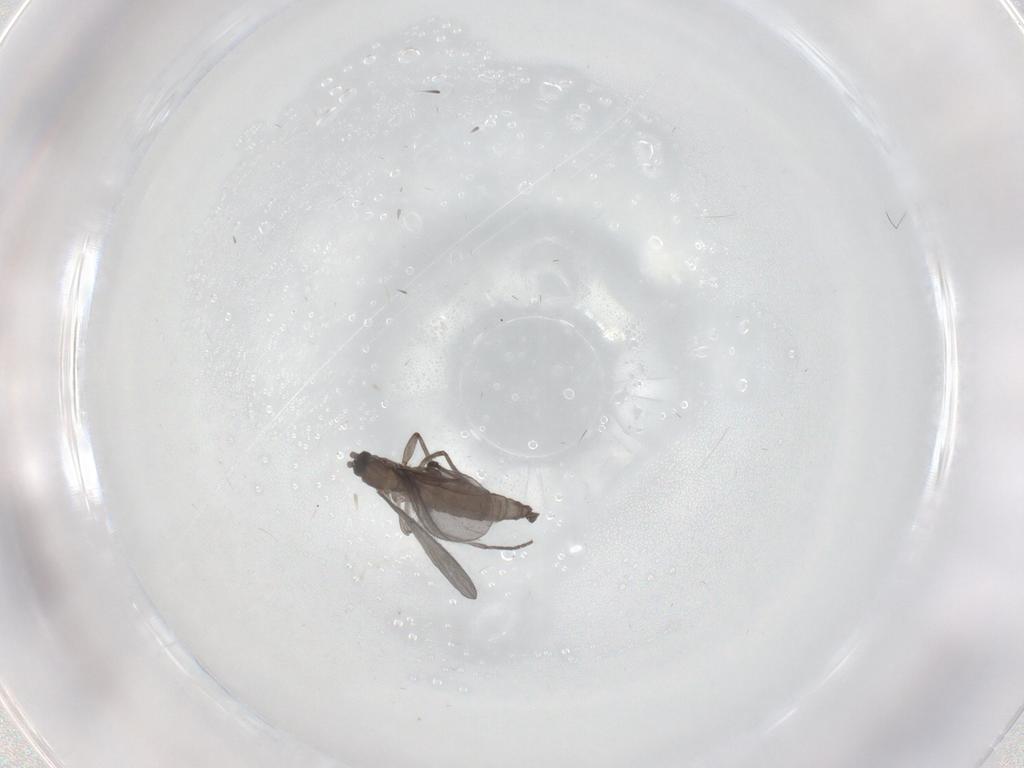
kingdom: Animalia
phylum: Arthropoda
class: Insecta
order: Diptera
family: Sciaridae
